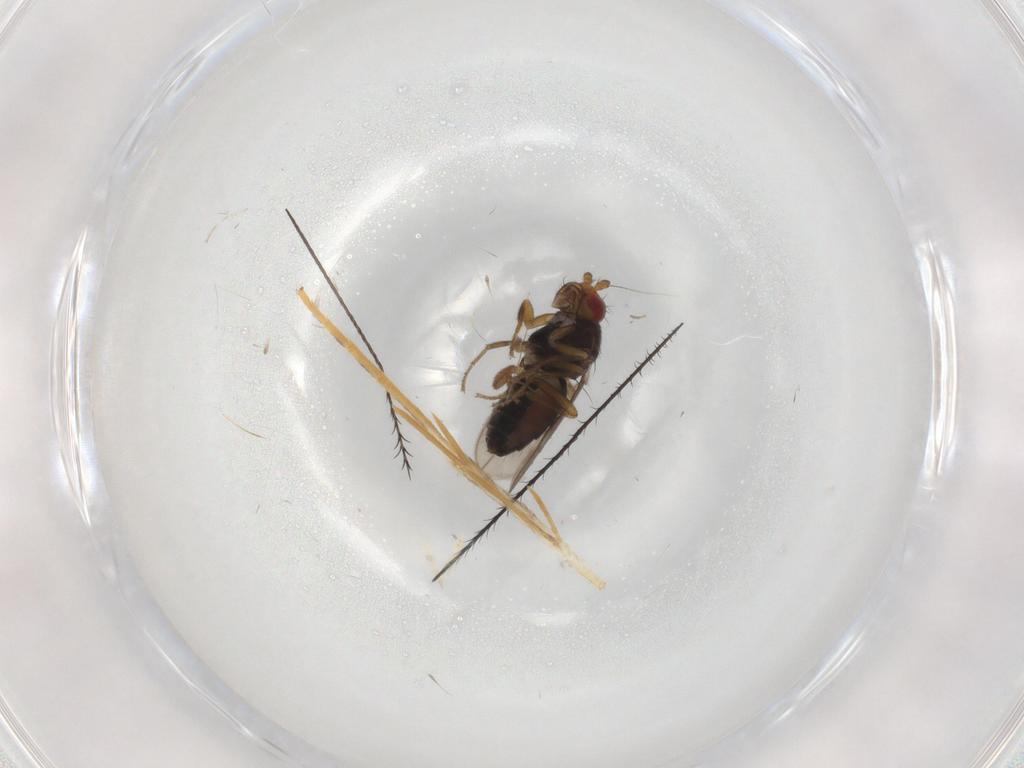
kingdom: Animalia
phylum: Arthropoda
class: Insecta
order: Diptera
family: Sphaeroceridae
